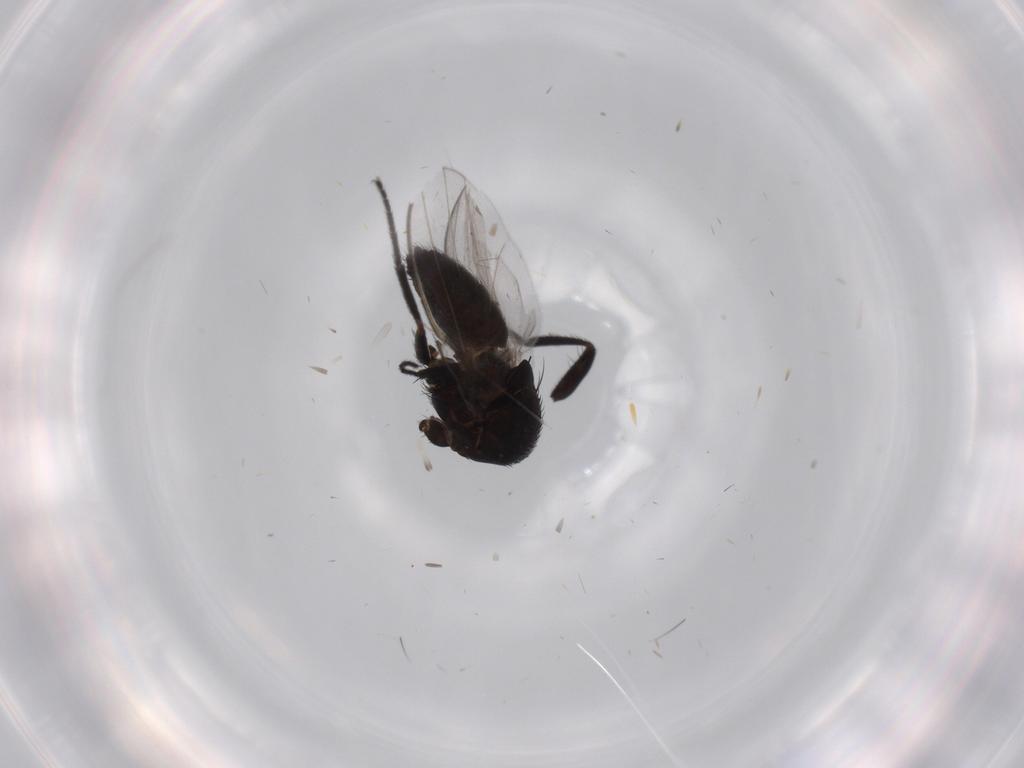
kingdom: Animalia
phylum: Arthropoda
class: Insecta
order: Diptera
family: Milichiidae
